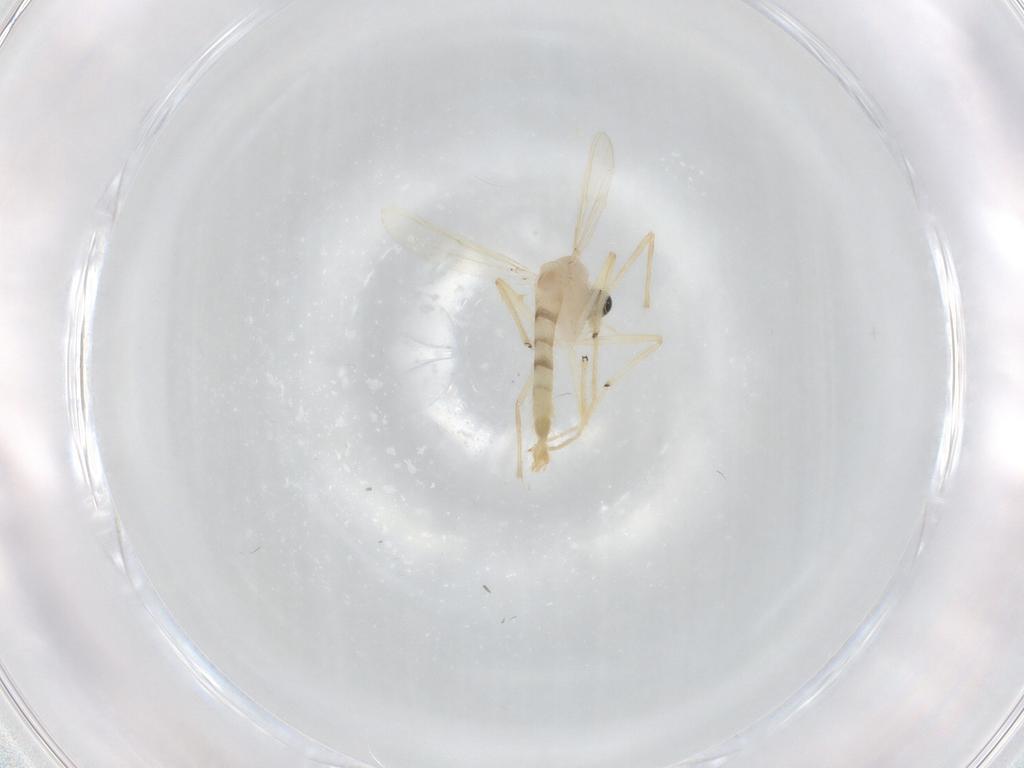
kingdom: Animalia
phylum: Arthropoda
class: Insecta
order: Diptera
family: Chironomidae
